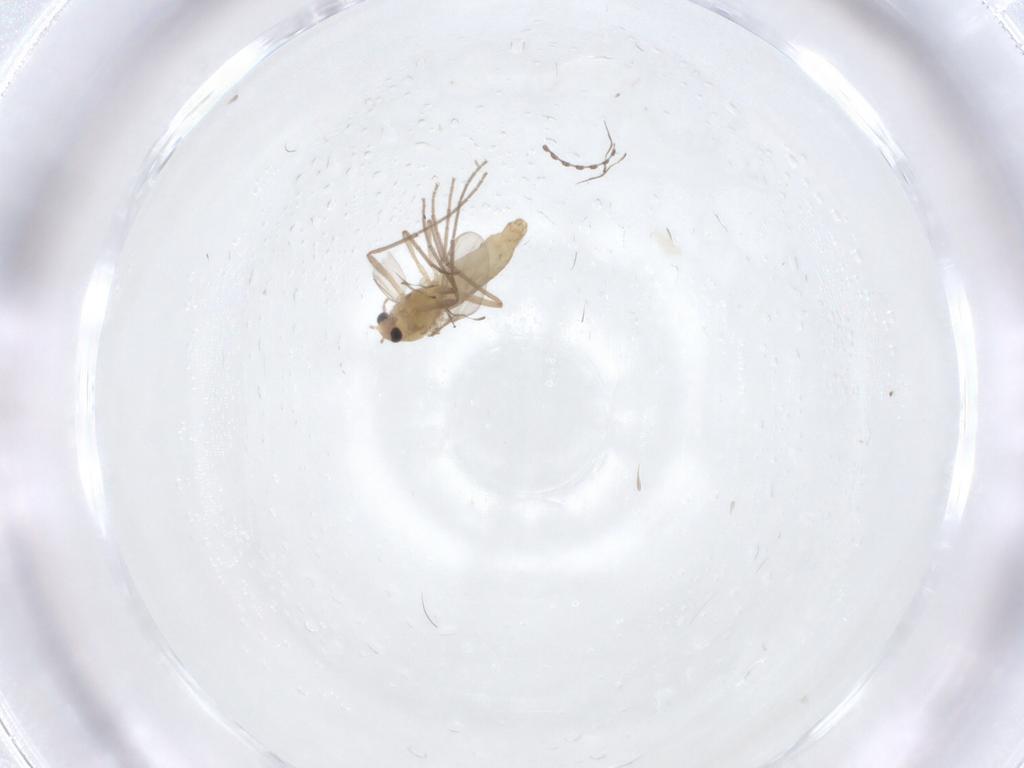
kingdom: Animalia
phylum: Arthropoda
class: Insecta
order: Diptera
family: Chironomidae
